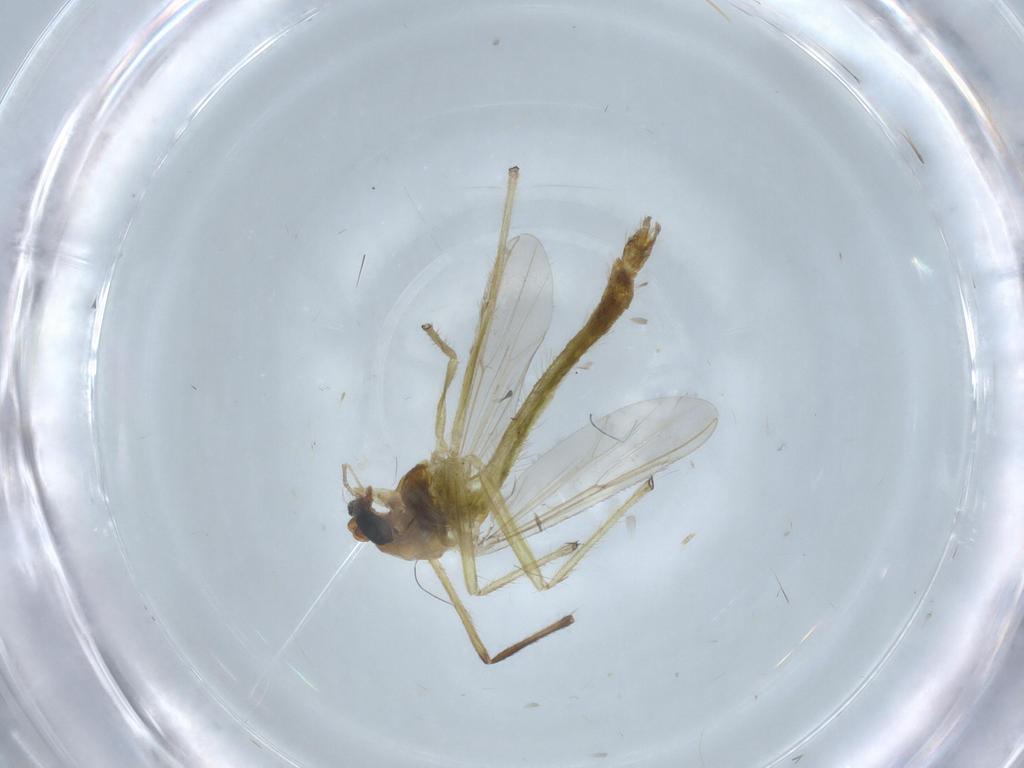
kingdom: Animalia
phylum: Arthropoda
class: Insecta
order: Diptera
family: Chironomidae
